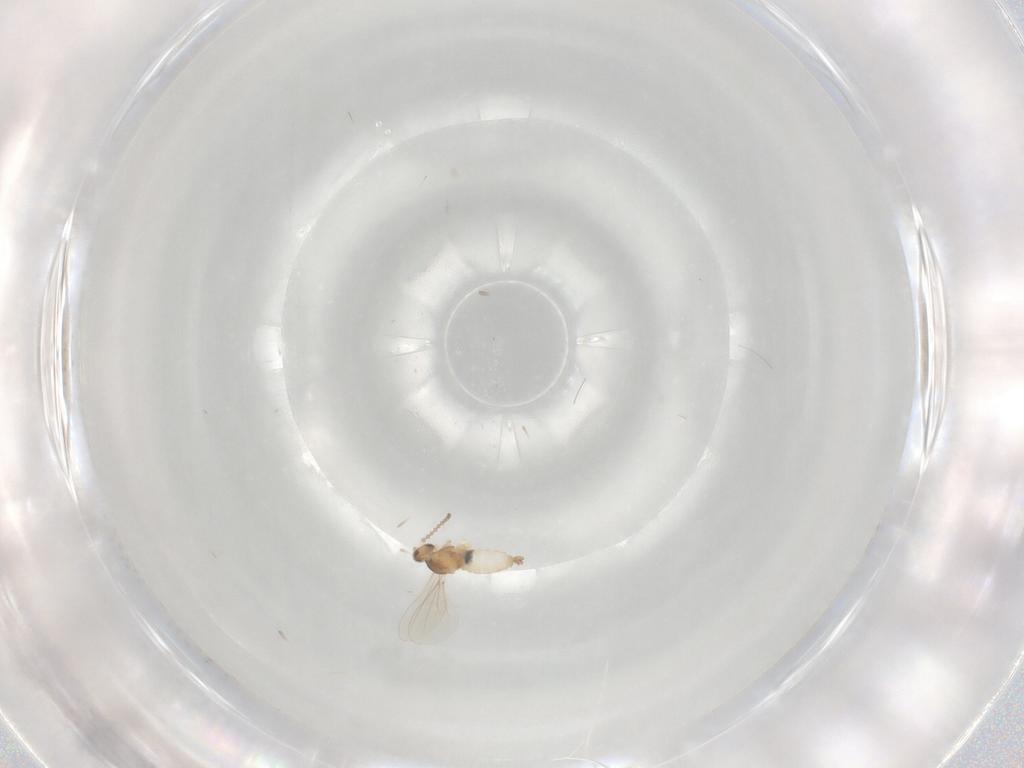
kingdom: Animalia
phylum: Arthropoda
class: Insecta
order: Diptera
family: Cecidomyiidae
